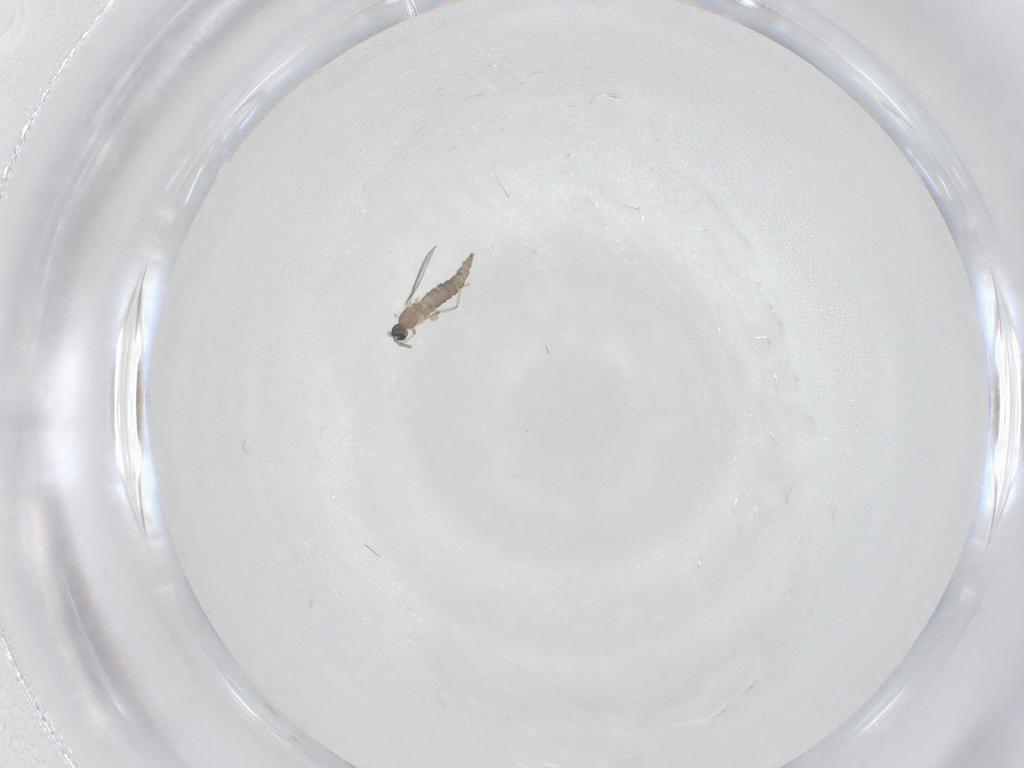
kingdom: Animalia
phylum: Arthropoda
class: Insecta
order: Diptera
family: Cecidomyiidae
